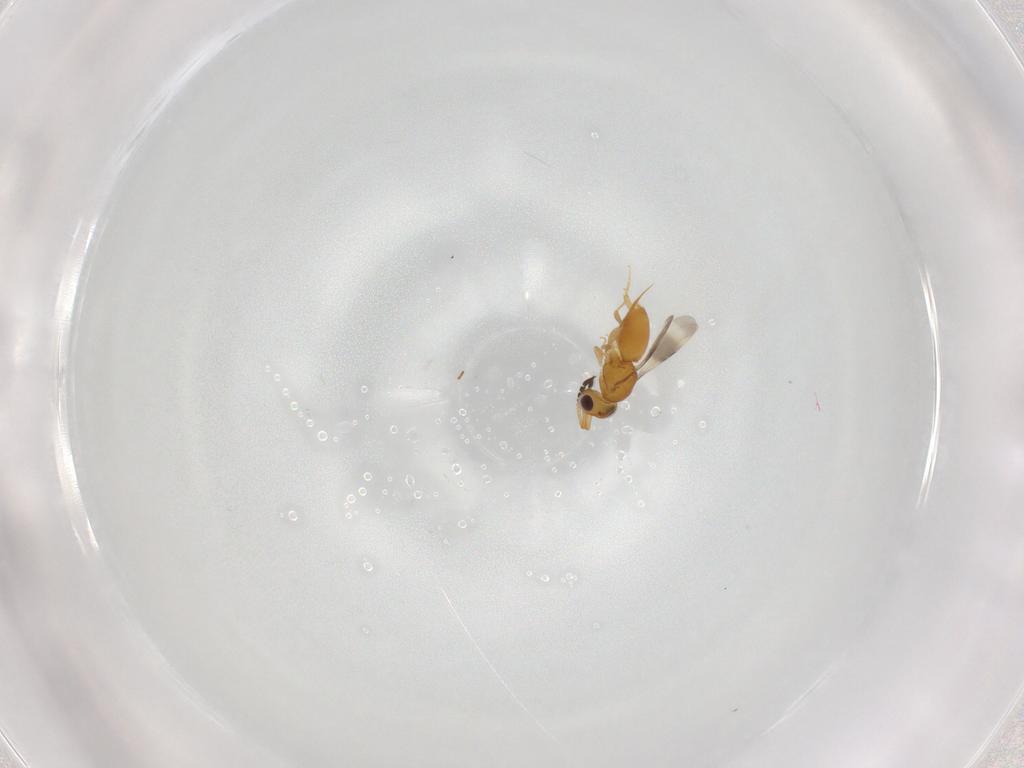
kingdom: Animalia
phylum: Arthropoda
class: Insecta
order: Hymenoptera
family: Ceraphronidae
